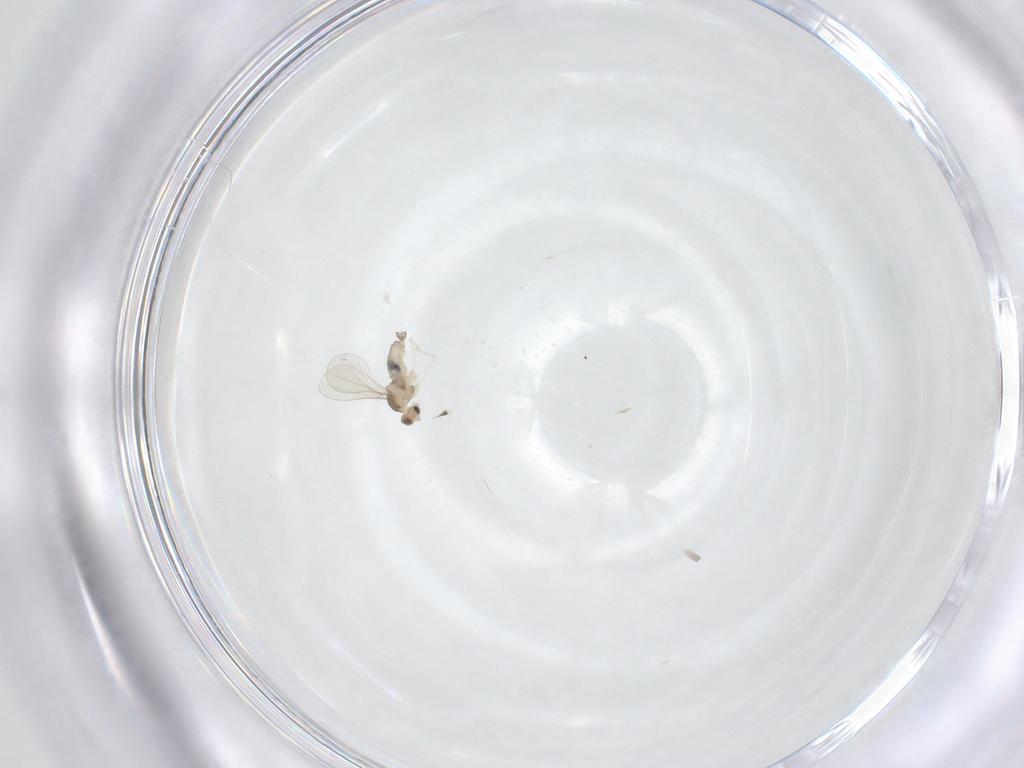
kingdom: Animalia
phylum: Arthropoda
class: Insecta
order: Diptera
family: Cecidomyiidae
